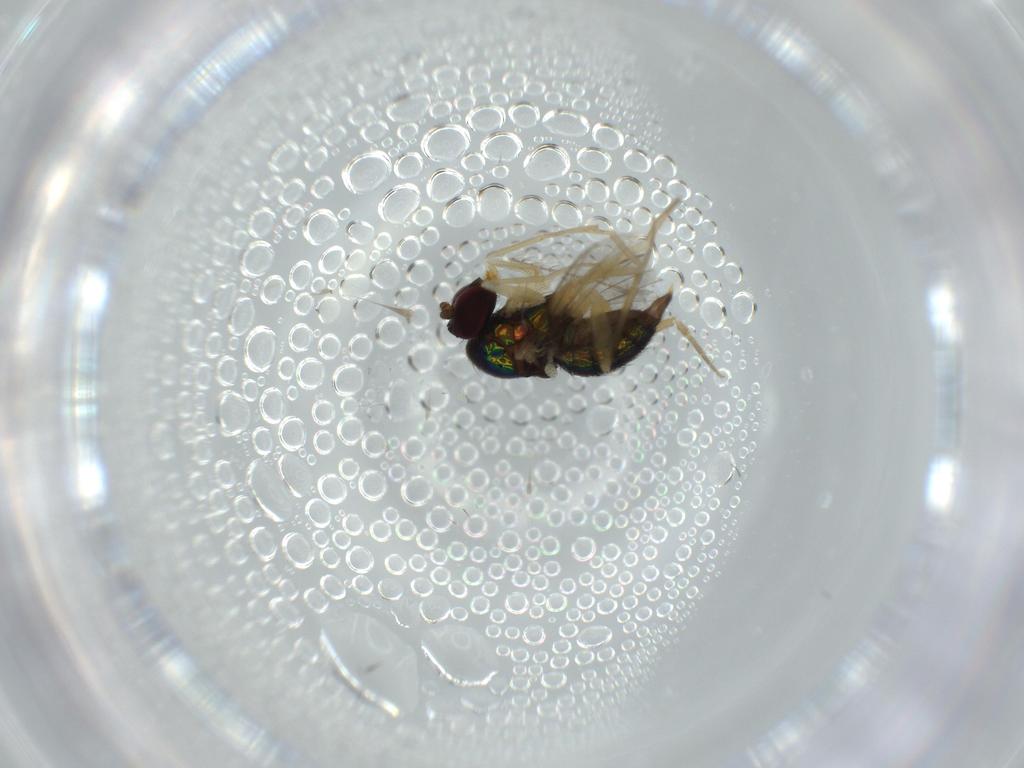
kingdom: Animalia
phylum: Arthropoda
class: Insecta
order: Diptera
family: Dolichopodidae
